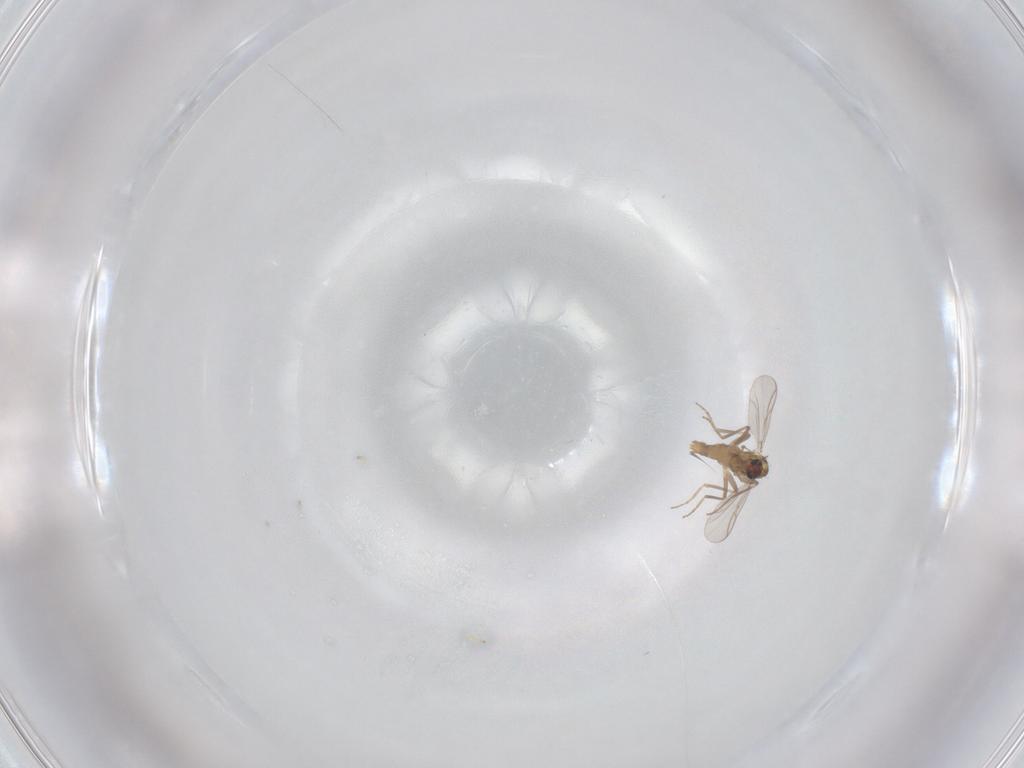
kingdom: Animalia
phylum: Arthropoda
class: Insecta
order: Diptera
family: Chironomidae
